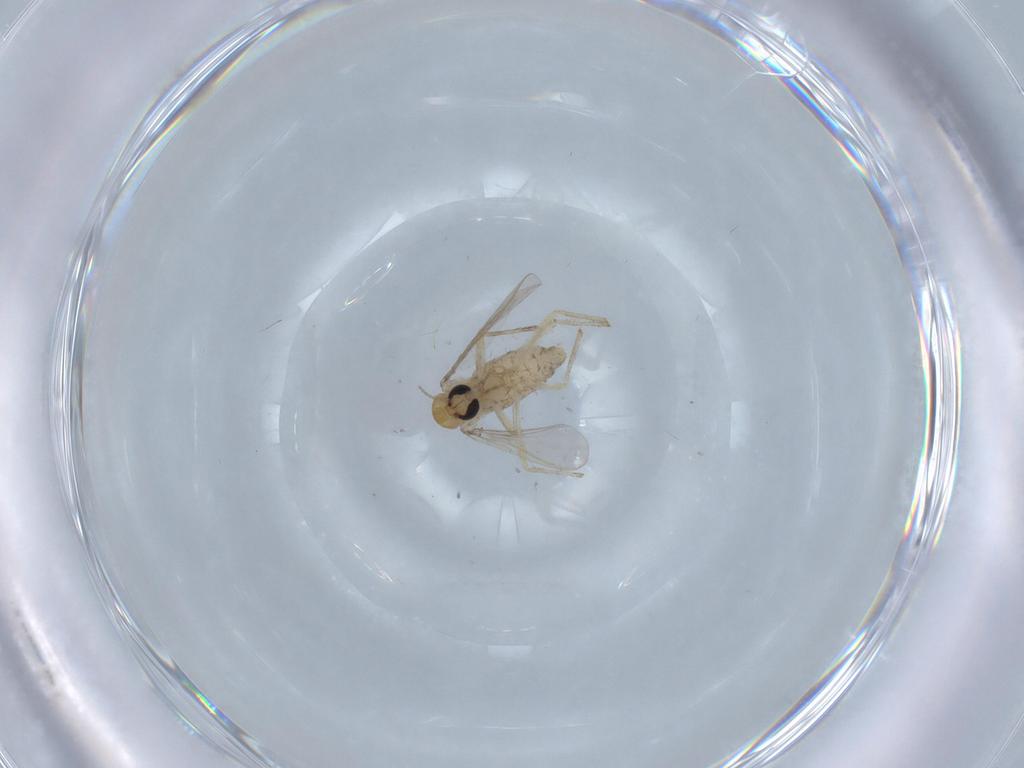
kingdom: Animalia
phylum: Arthropoda
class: Insecta
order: Diptera
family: Chironomidae
